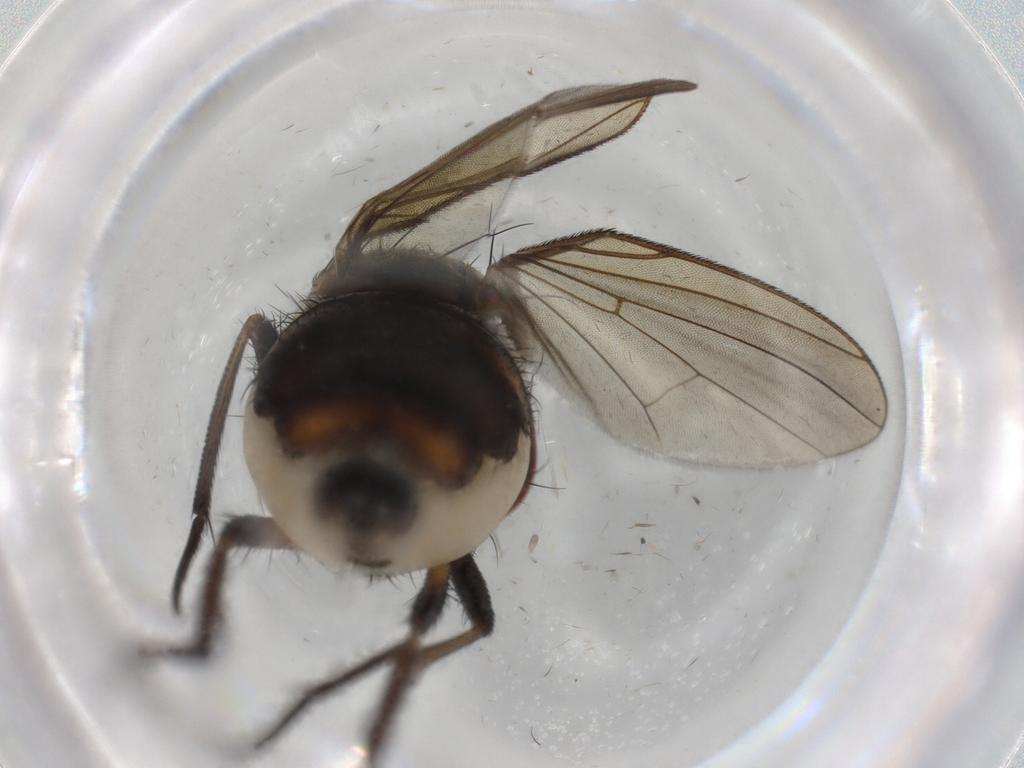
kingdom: Animalia
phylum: Arthropoda
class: Insecta
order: Diptera
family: Anthomyiidae
